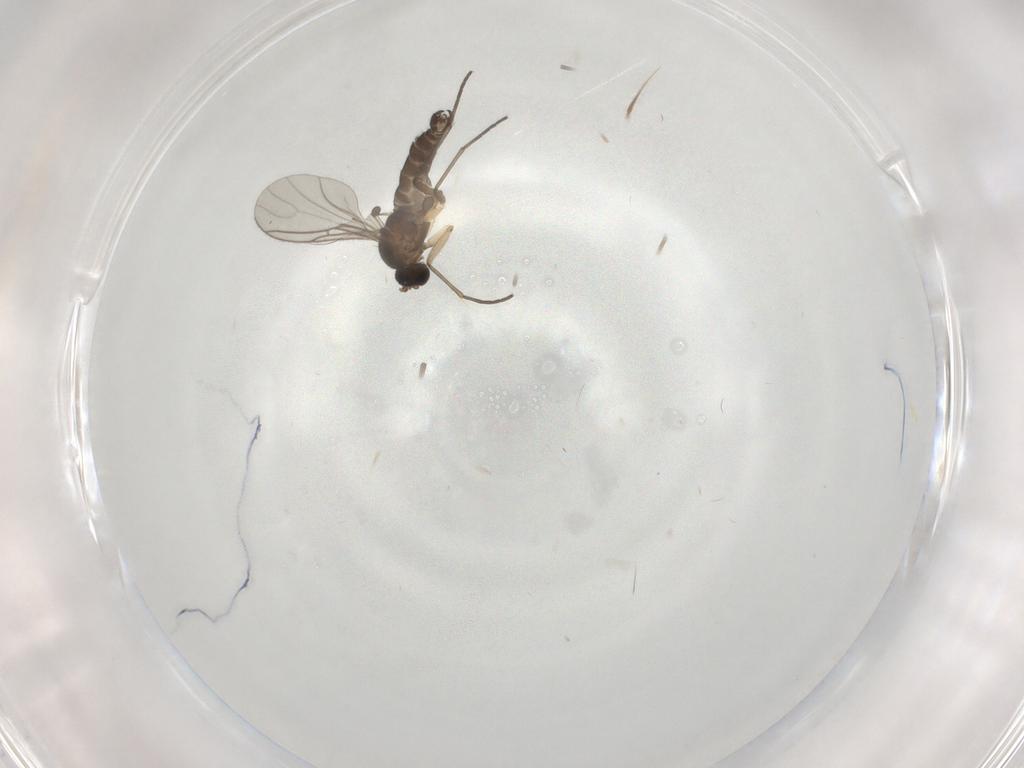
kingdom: Animalia
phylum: Arthropoda
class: Insecta
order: Diptera
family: Sciaridae
